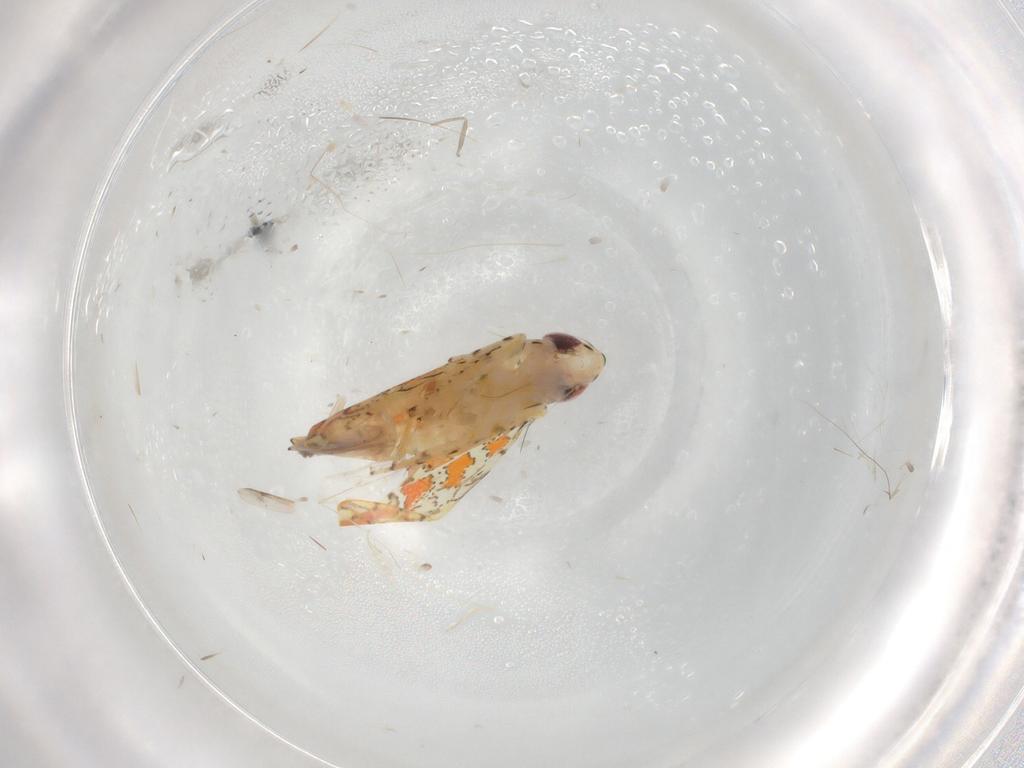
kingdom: Animalia
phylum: Arthropoda
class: Insecta
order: Hemiptera
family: Cicadellidae
